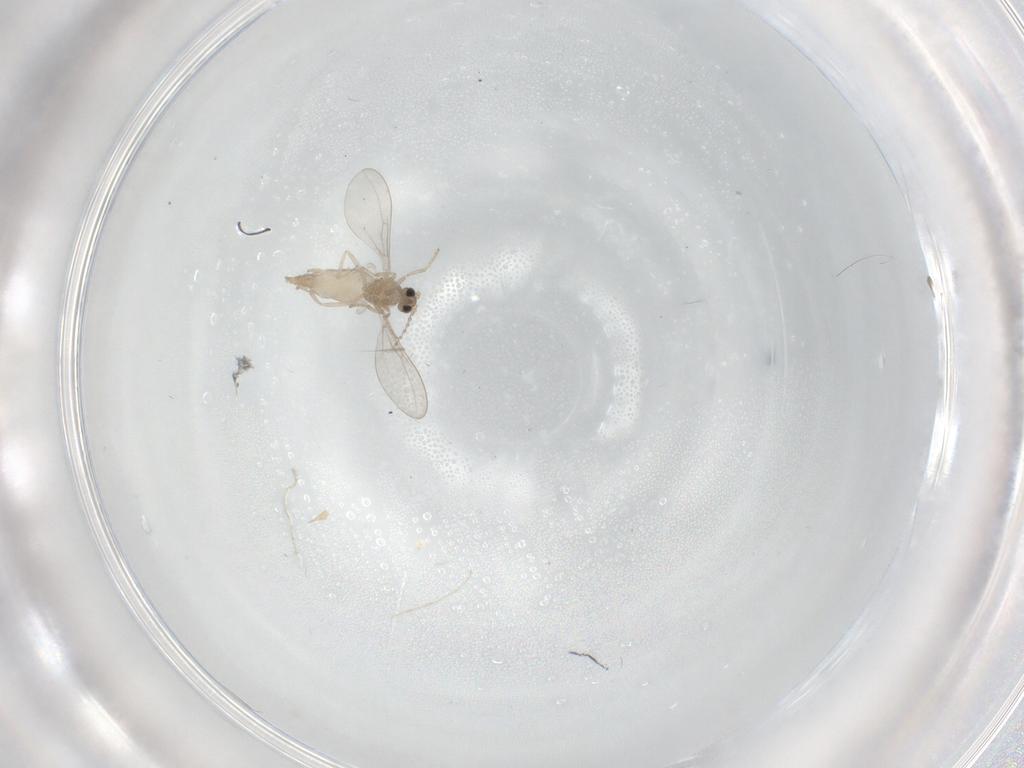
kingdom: Animalia
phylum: Arthropoda
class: Insecta
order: Diptera
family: Cecidomyiidae
